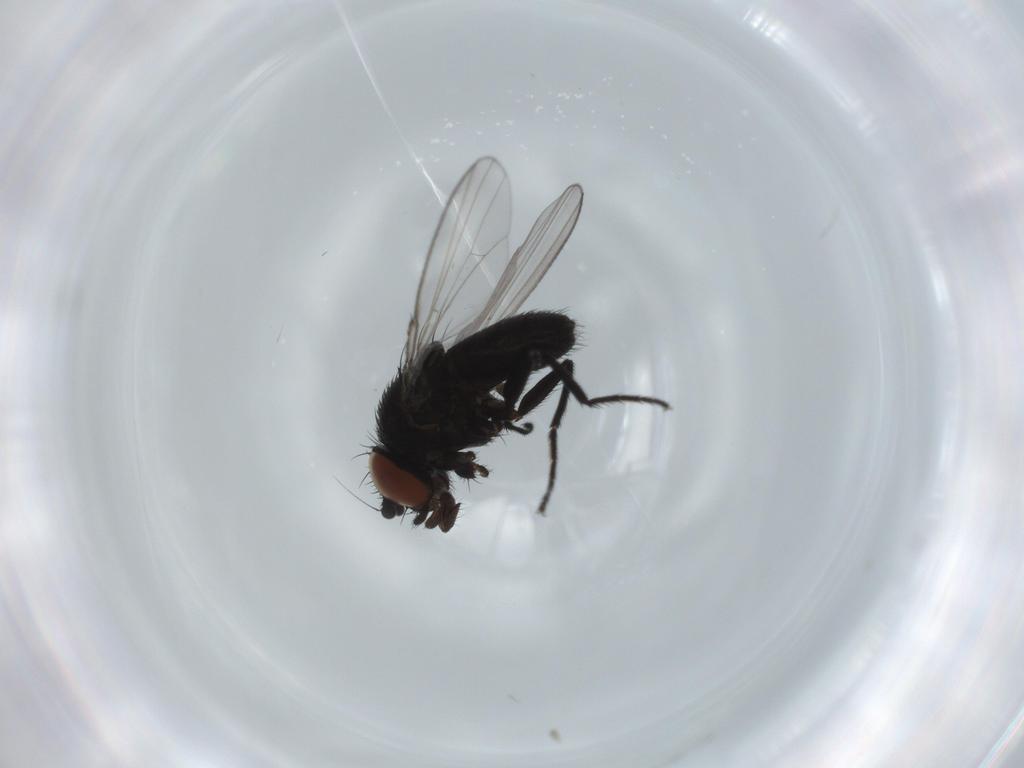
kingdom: Animalia
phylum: Arthropoda
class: Insecta
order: Diptera
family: Milichiidae
